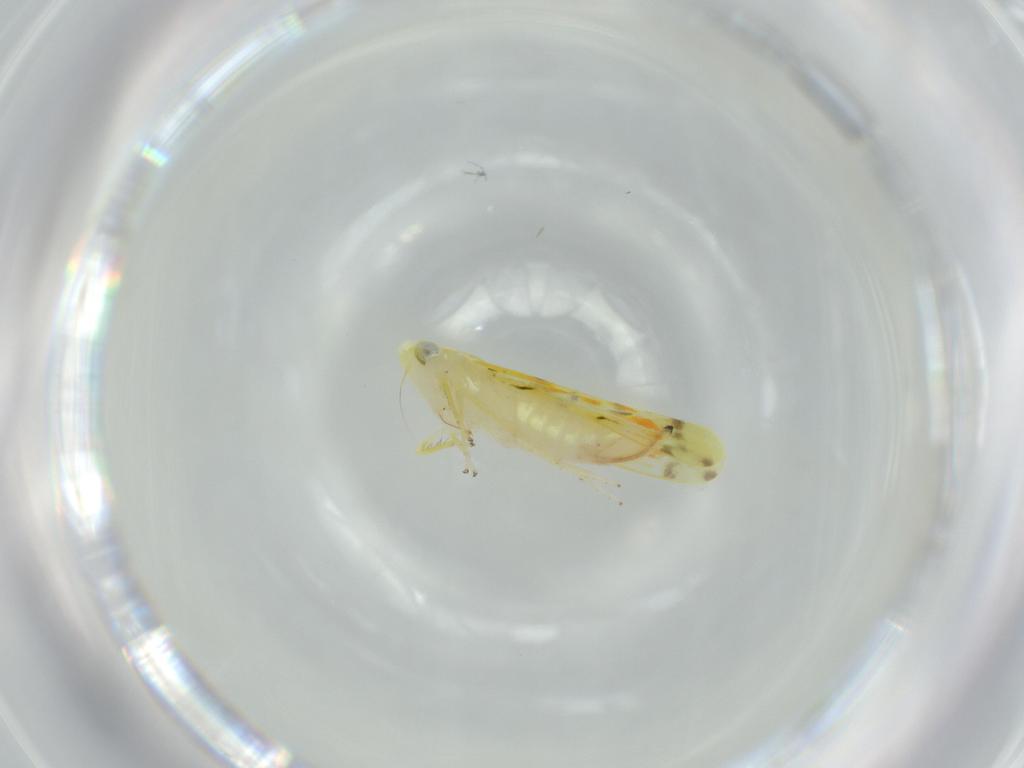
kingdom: Animalia
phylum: Arthropoda
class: Insecta
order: Hemiptera
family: Cicadellidae
